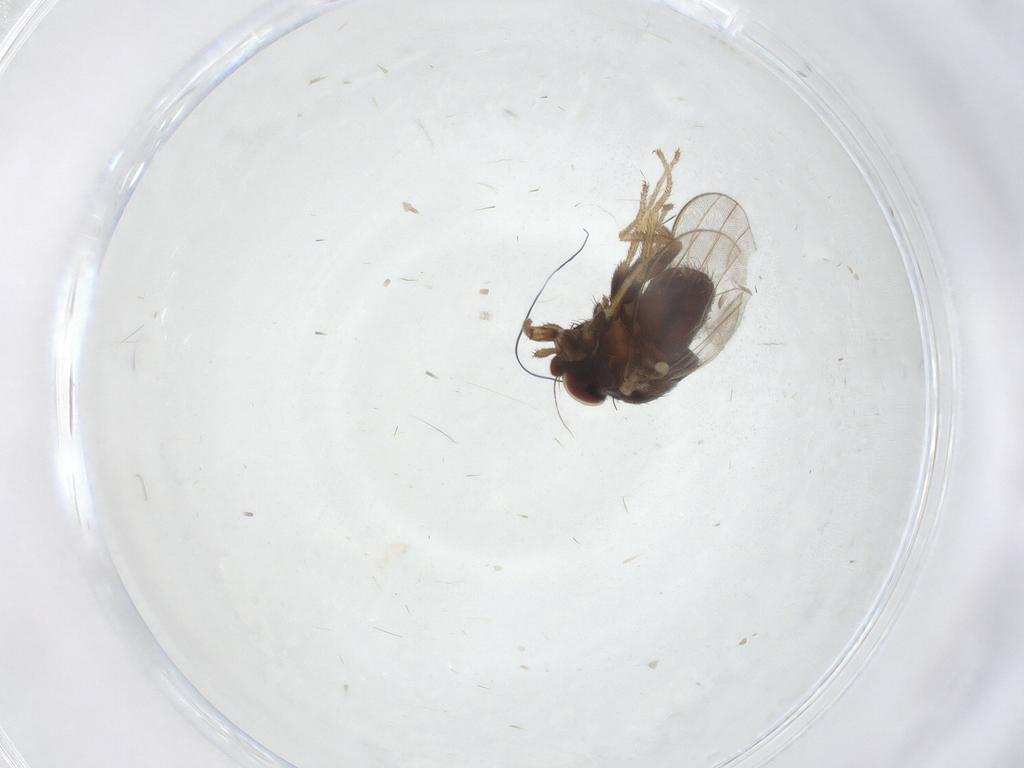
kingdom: Animalia
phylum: Arthropoda
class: Insecta
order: Diptera
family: Milichiidae
